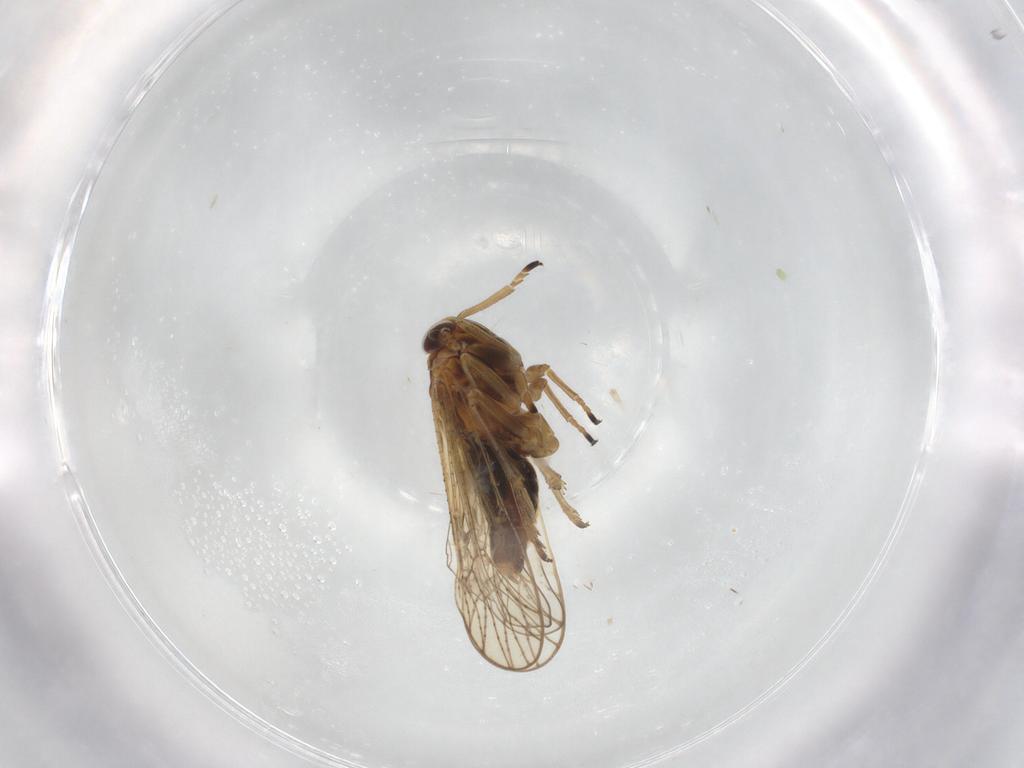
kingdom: Animalia
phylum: Arthropoda
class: Insecta
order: Hemiptera
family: Delphacidae
